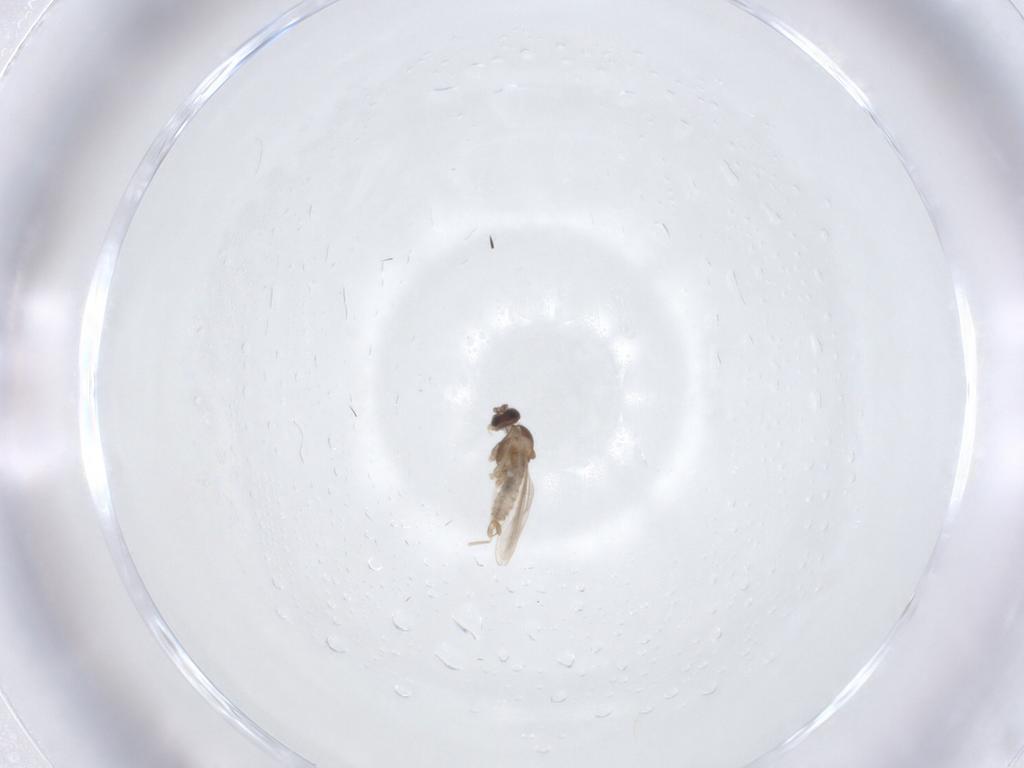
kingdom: Animalia
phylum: Arthropoda
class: Insecta
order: Diptera
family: Chironomidae
